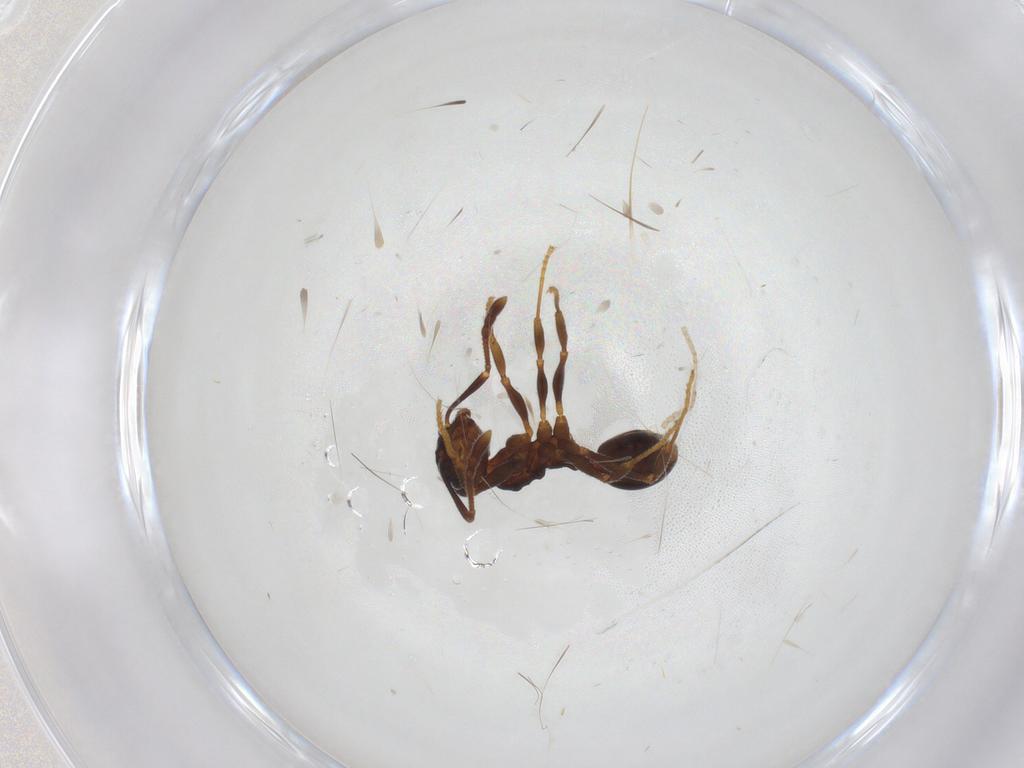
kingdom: Animalia
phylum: Arthropoda
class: Insecta
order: Hymenoptera
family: Formicidae
